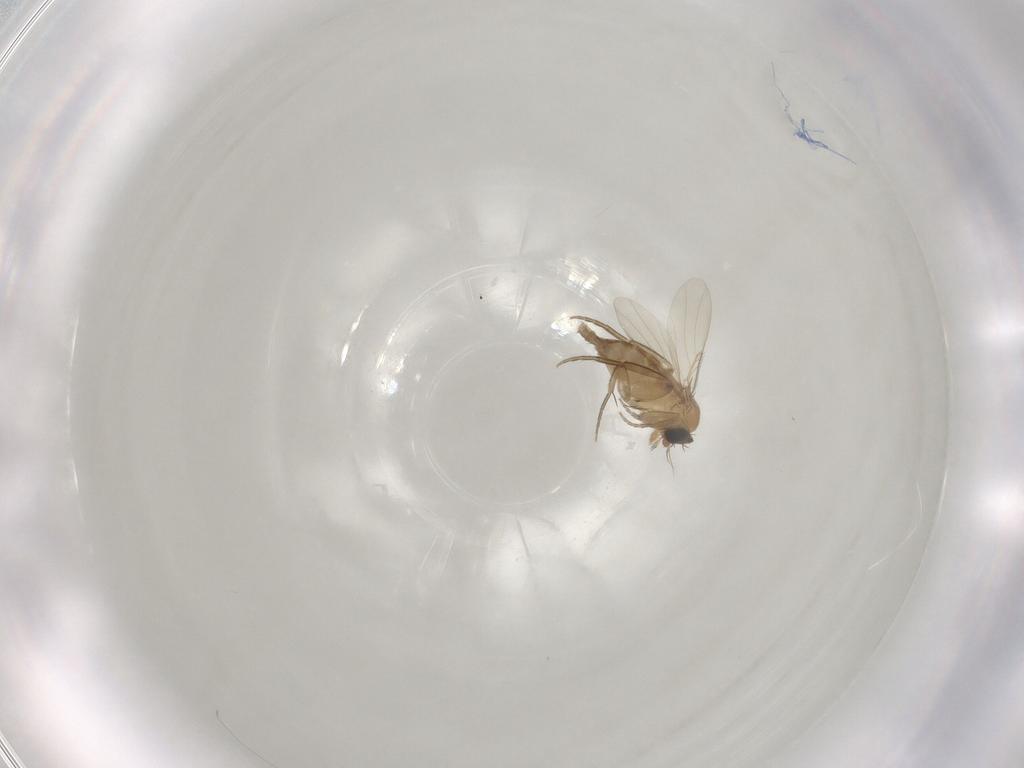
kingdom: Animalia
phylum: Arthropoda
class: Insecta
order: Diptera
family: Phoridae
